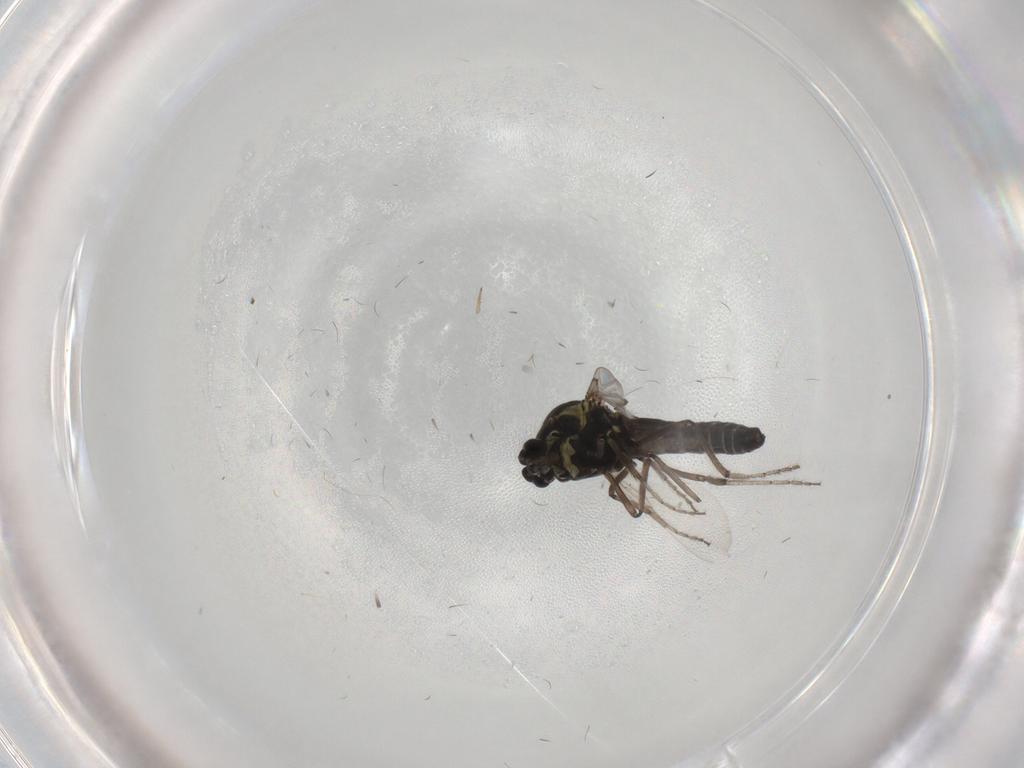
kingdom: Animalia
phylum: Arthropoda
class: Insecta
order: Diptera
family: Ceratopogonidae
